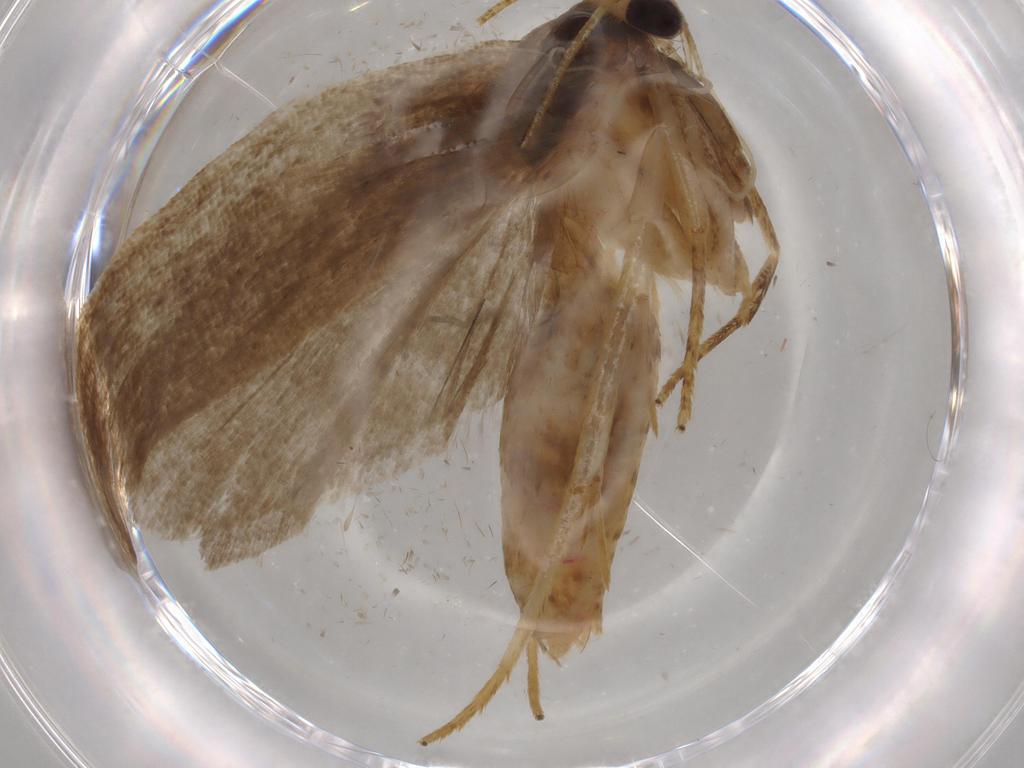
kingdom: Animalia
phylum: Arthropoda
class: Insecta
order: Lepidoptera
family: Autostichidae
